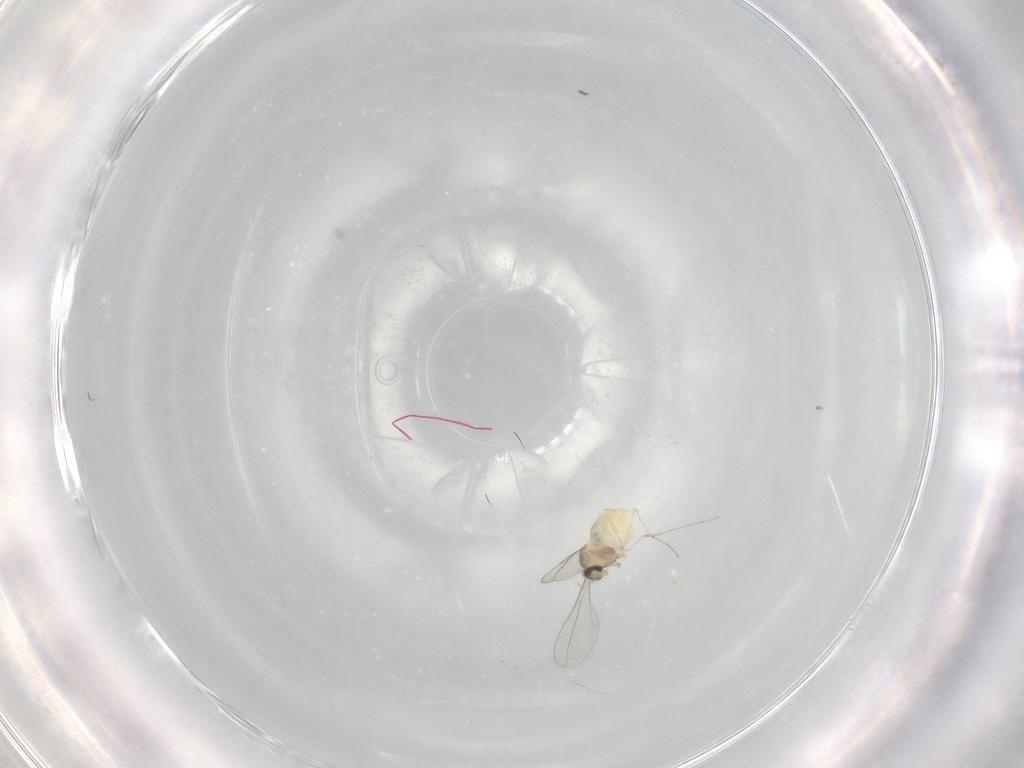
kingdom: Animalia
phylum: Arthropoda
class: Insecta
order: Diptera
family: Cecidomyiidae
